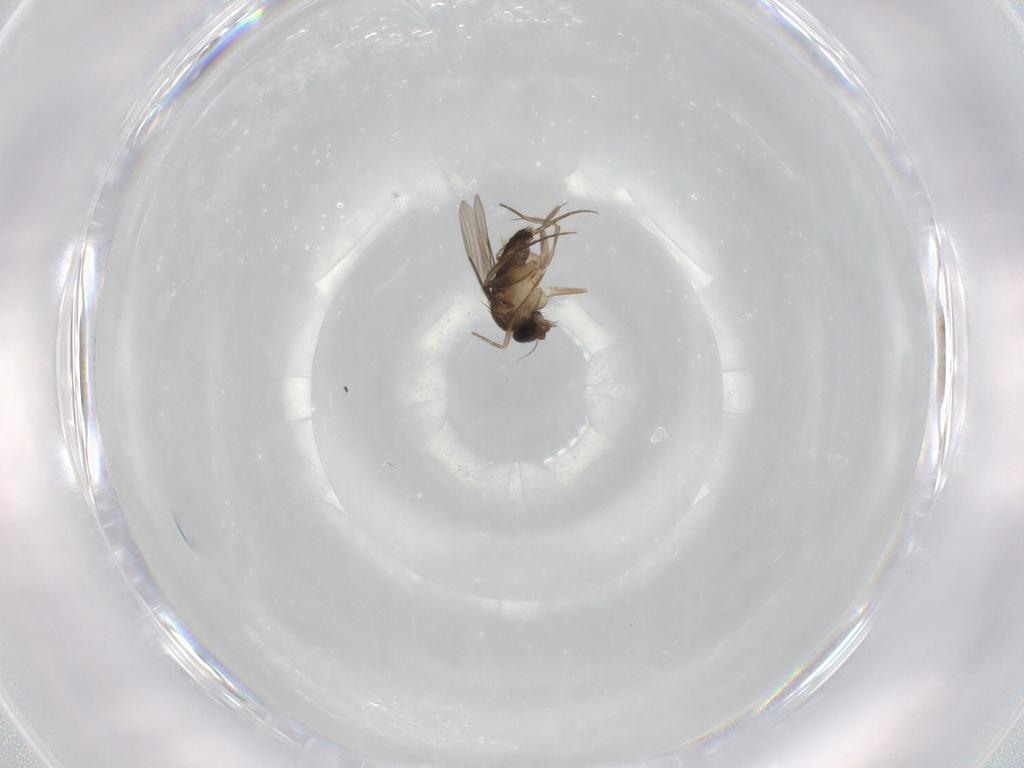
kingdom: Animalia
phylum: Arthropoda
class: Insecta
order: Diptera
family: Phoridae
